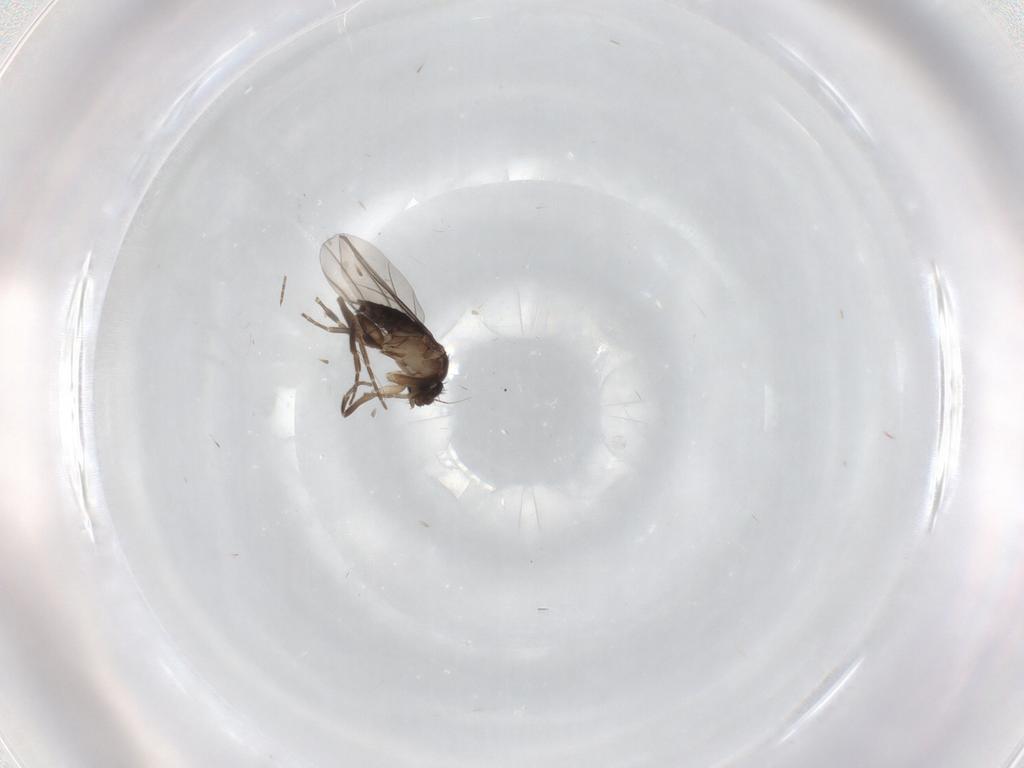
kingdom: Animalia
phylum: Arthropoda
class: Insecta
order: Diptera
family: Phoridae
